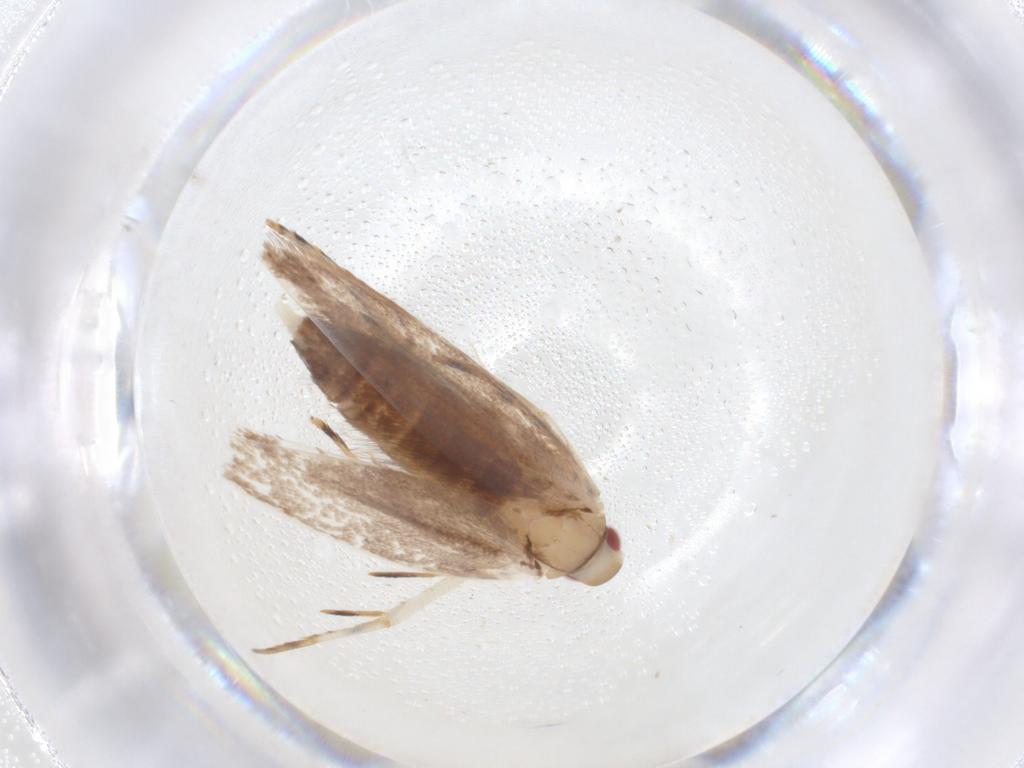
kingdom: Animalia
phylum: Arthropoda
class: Insecta
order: Lepidoptera
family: Cosmopterigidae
